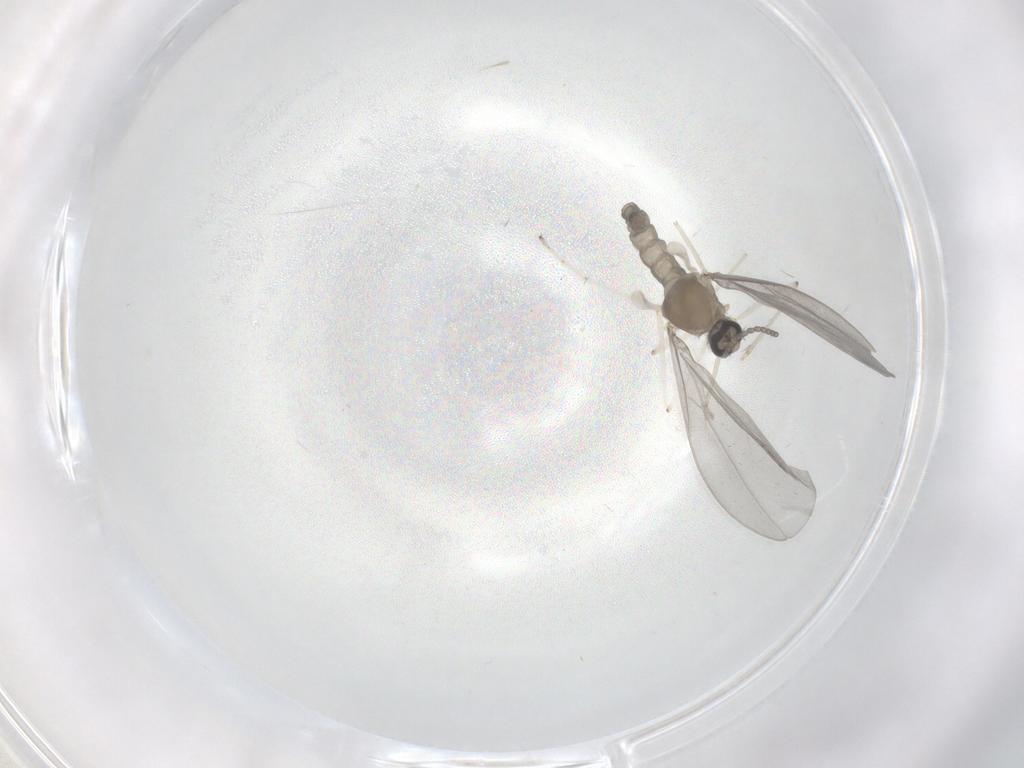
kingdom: Animalia
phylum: Arthropoda
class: Insecta
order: Diptera
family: Cecidomyiidae
